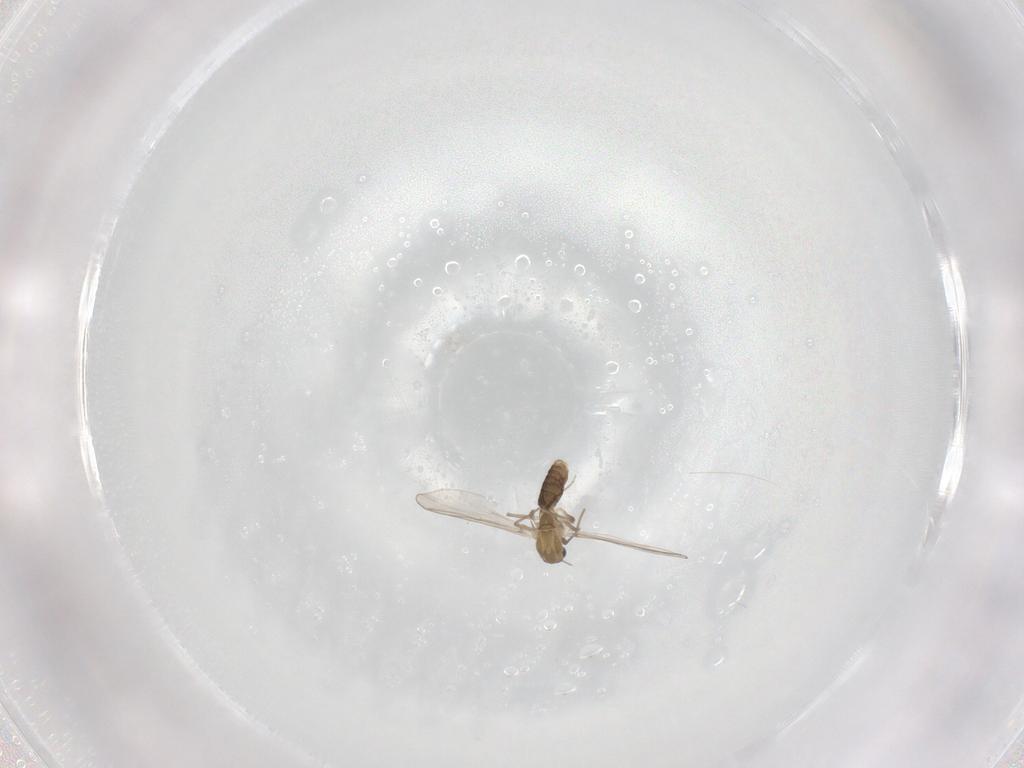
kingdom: Animalia
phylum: Arthropoda
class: Insecta
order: Diptera
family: Chironomidae
